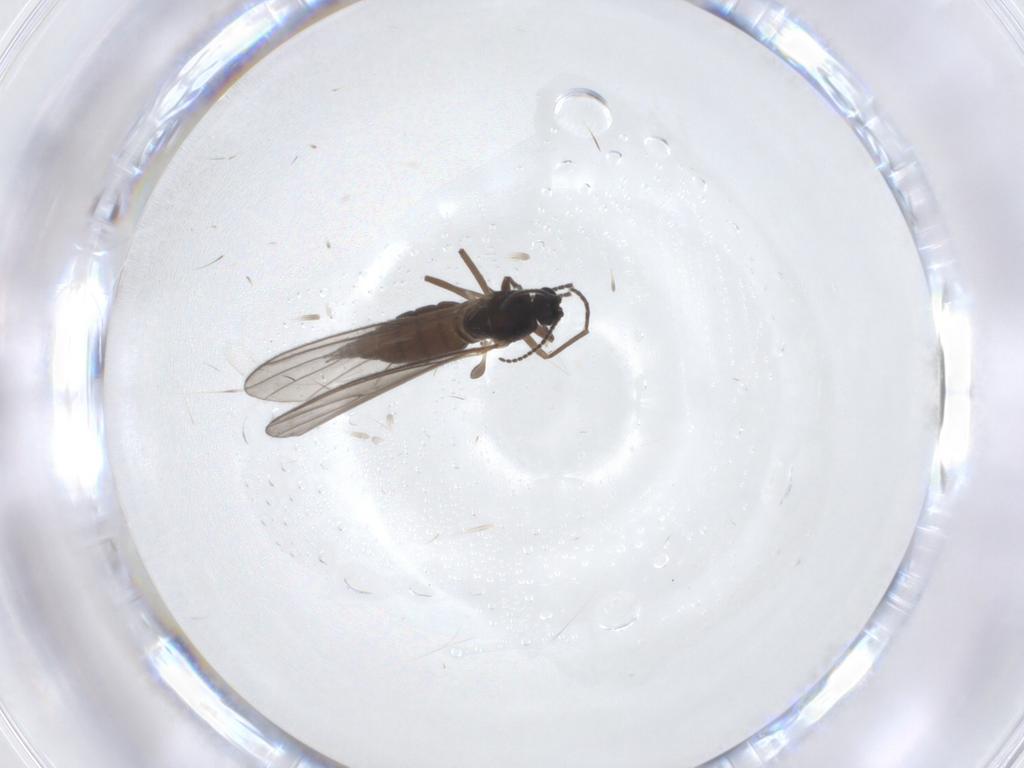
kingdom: Animalia
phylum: Arthropoda
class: Insecta
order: Diptera
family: Sciaridae
